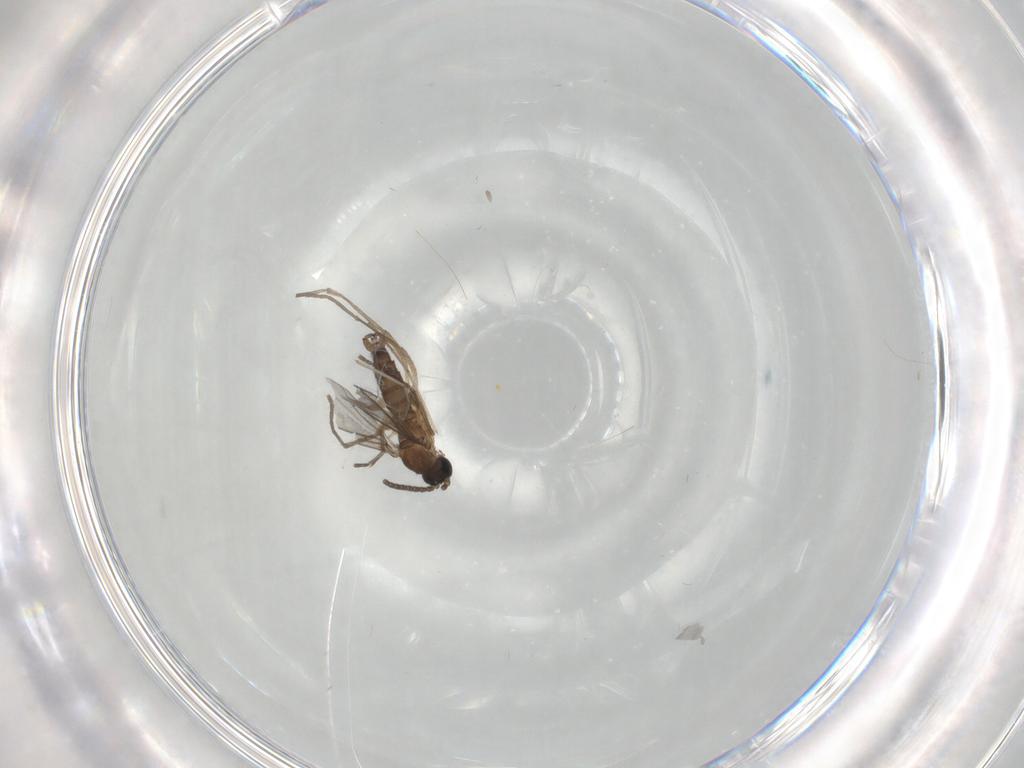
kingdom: Animalia
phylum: Arthropoda
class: Insecta
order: Diptera
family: Sciaridae
